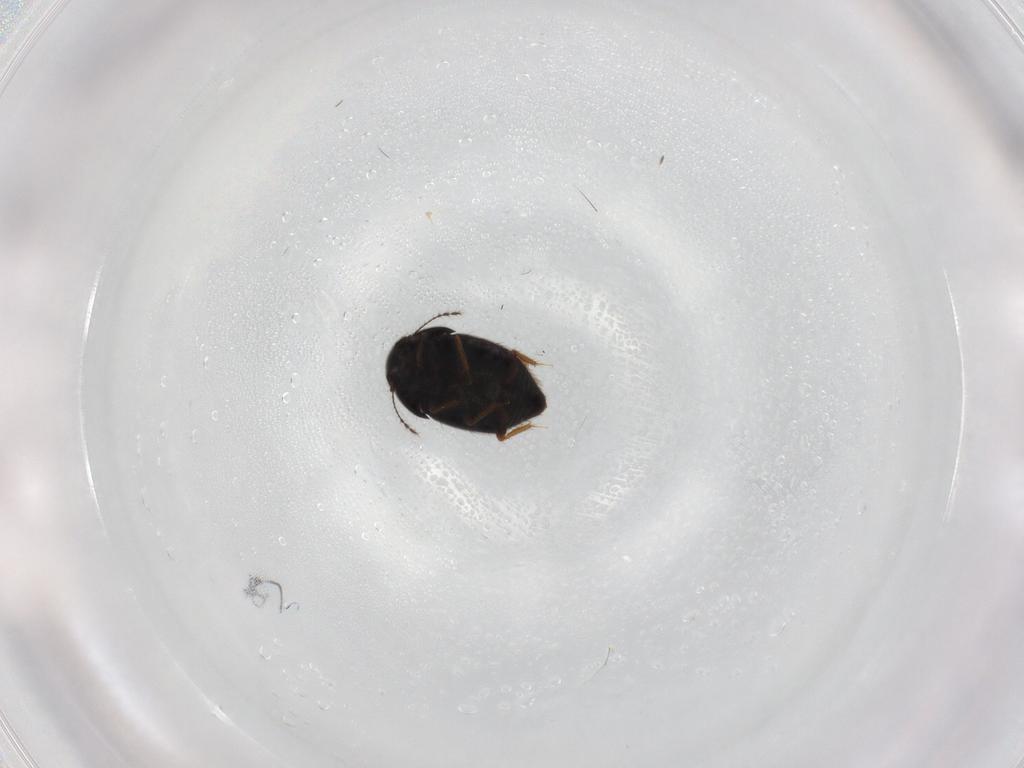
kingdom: Animalia
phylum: Arthropoda
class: Insecta
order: Coleoptera
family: Ptiliidae
